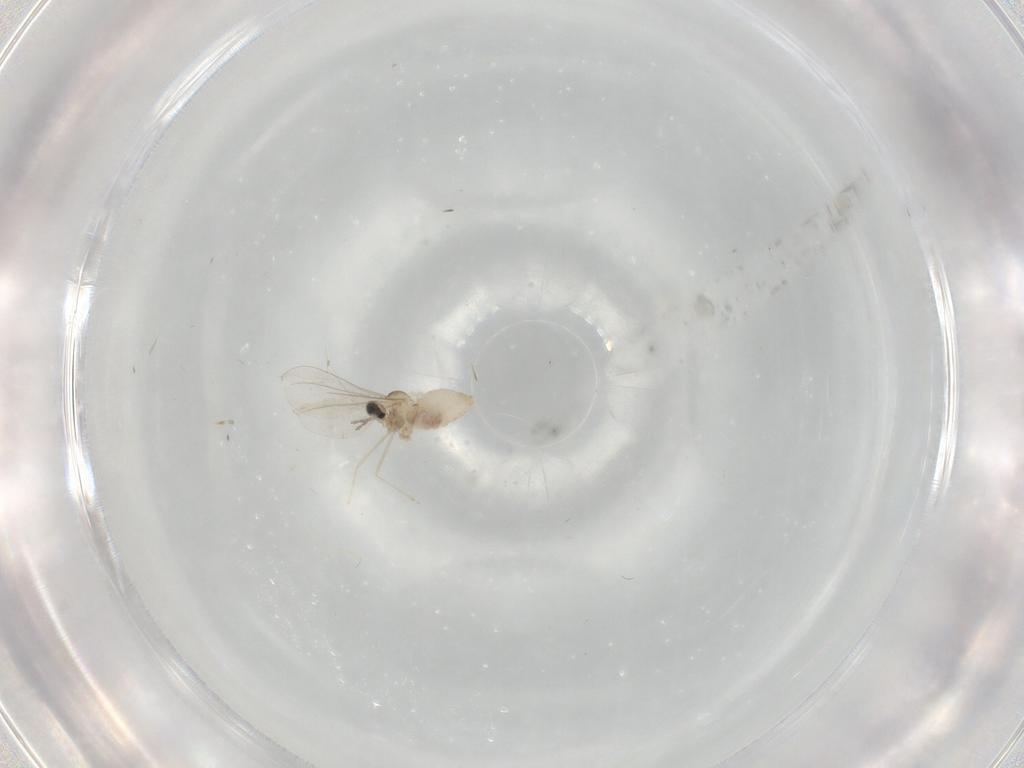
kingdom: Animalia
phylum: Arthropoda
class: Insecta
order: Diptera
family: Cecidomyiidae
